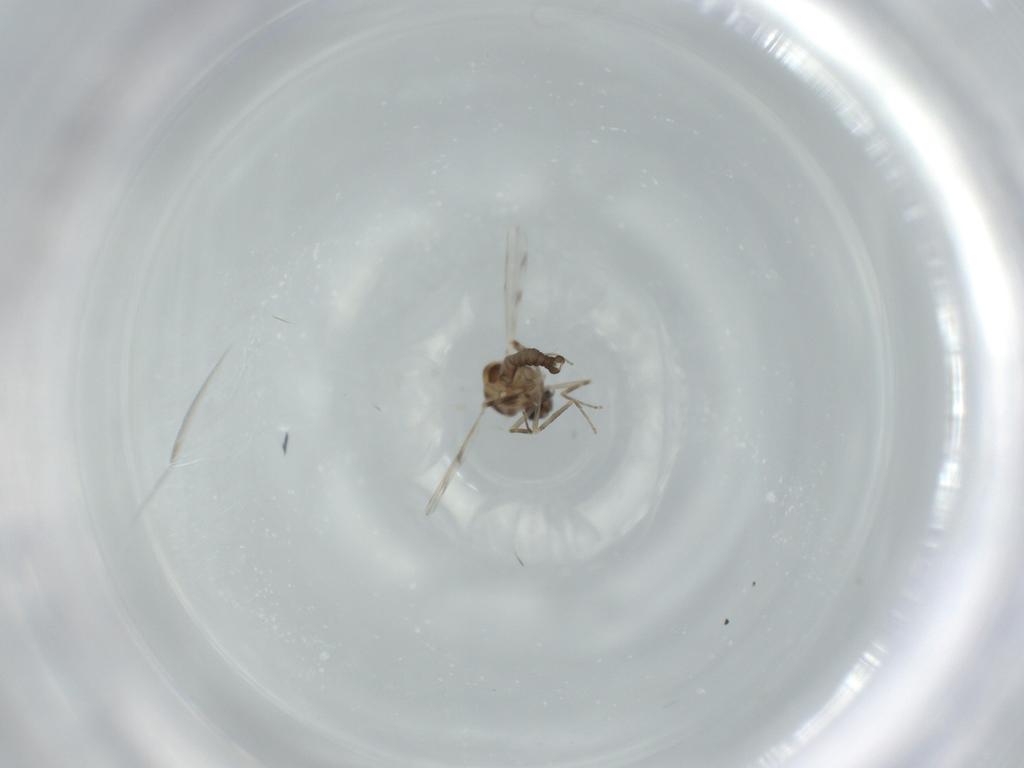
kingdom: Animalia
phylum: Arthropoda
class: Insecta
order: Diptera
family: Ceratopogonidae
